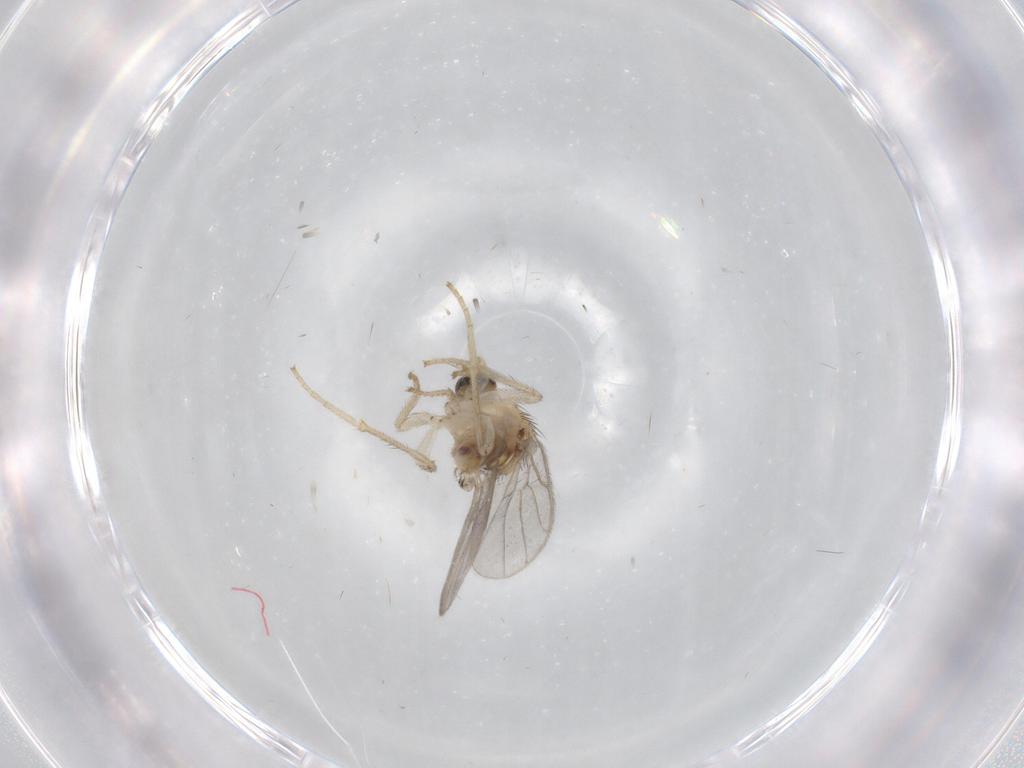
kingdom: Animalia
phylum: Arthropoda
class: Insecta
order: Diptera
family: Hybotidae
